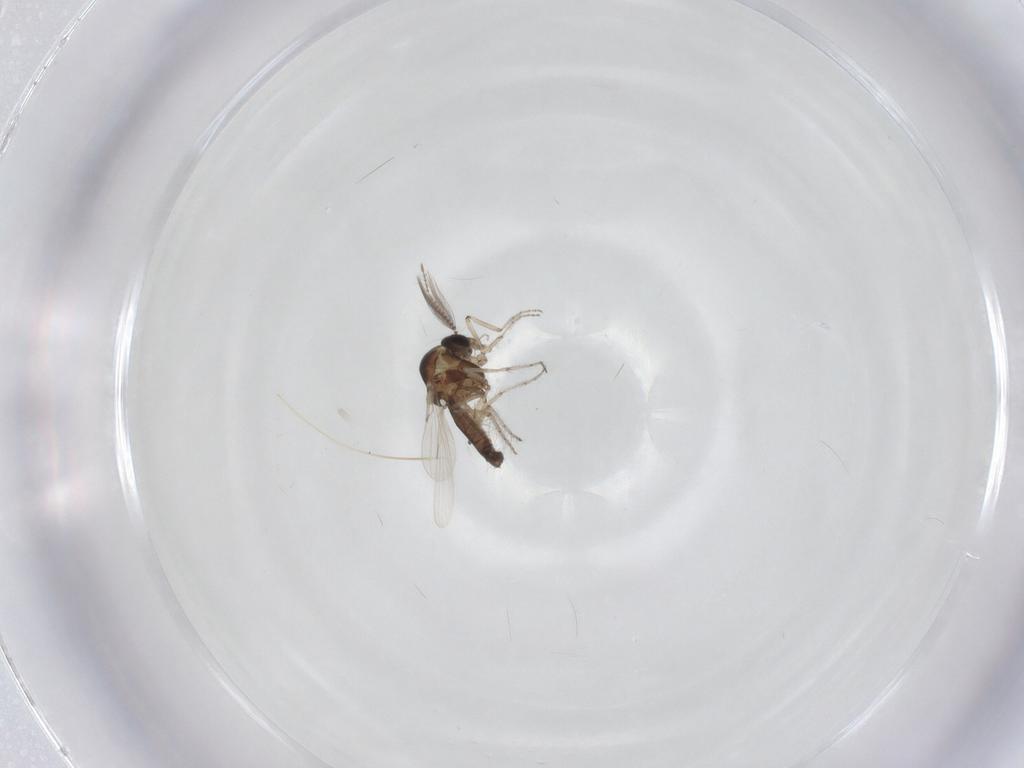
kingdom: Animalia
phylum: Arthropoda
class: Insecta
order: Diptera
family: Ceratopogonidae
